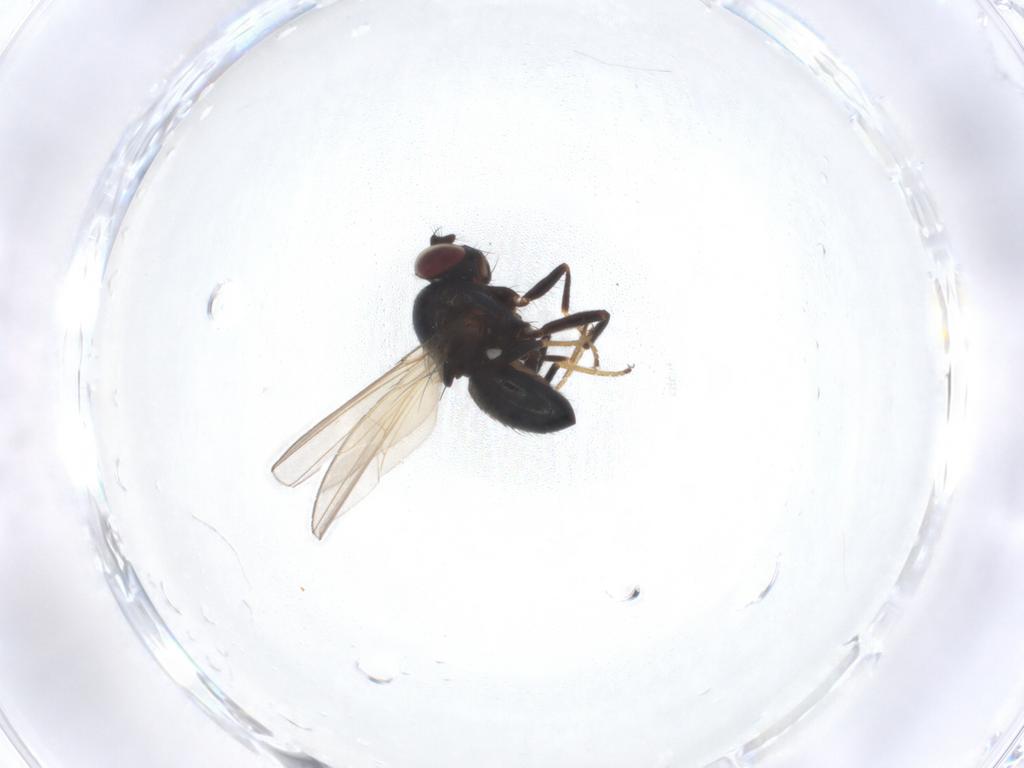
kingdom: Animalia
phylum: Arthropoda
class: Insecta
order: Diptera
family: Ephydridae
